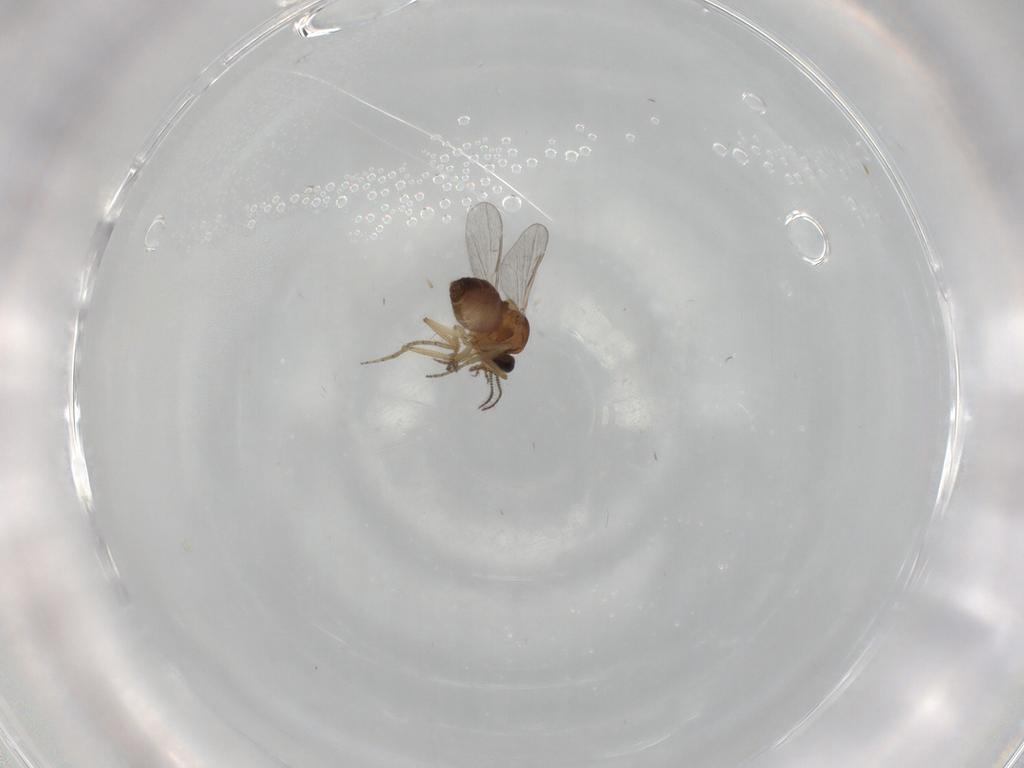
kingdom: Animalia
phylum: Arthropoda
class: Insecta
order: Diptera
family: Ceratopogonidae
